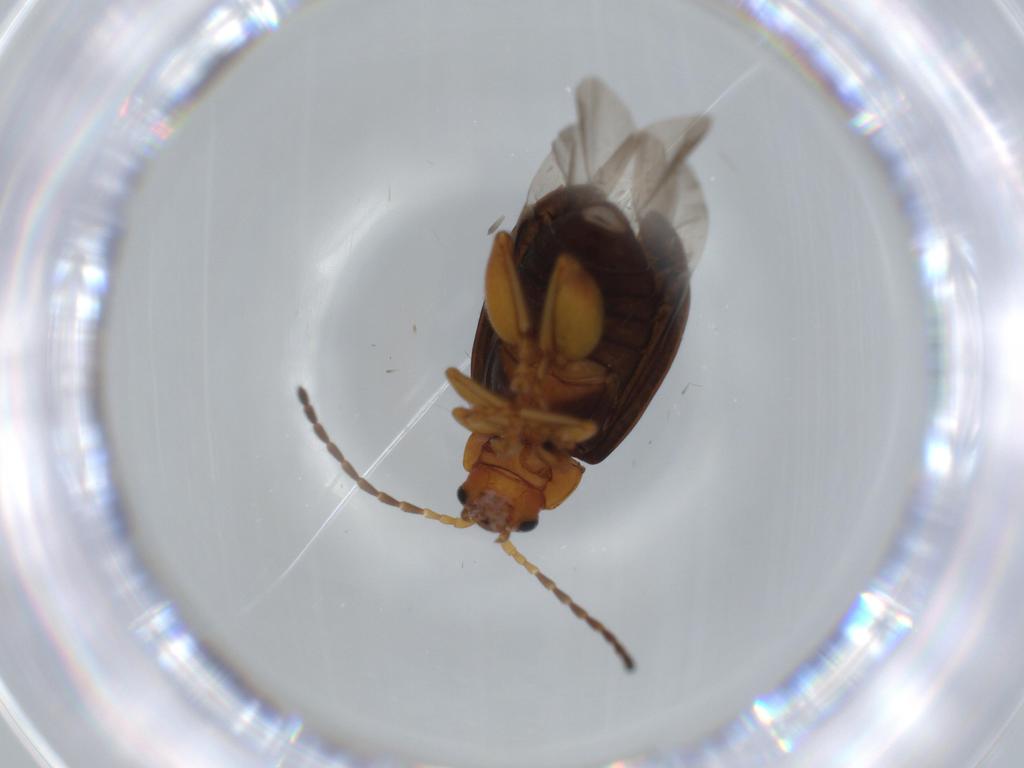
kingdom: Animalia
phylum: Arthropoda
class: Insecta
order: Coleoptera
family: Chrysomelidae
